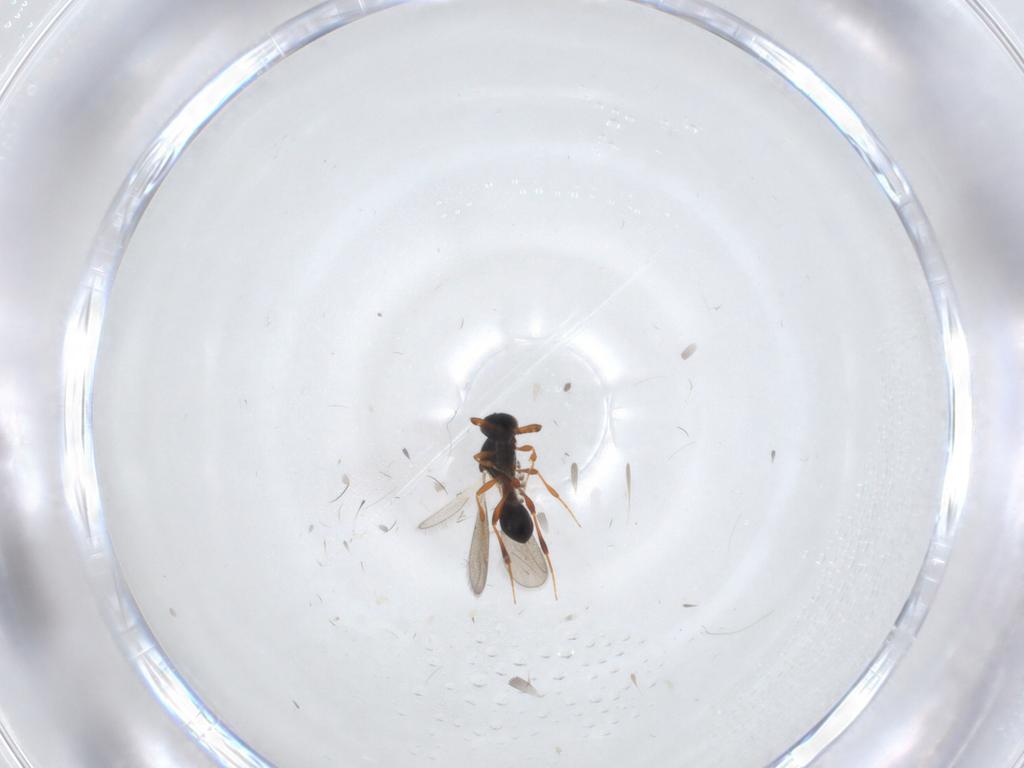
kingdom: Animalia
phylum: Arthropoda
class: Insecta
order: Hymenoptera
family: Platygastridae
